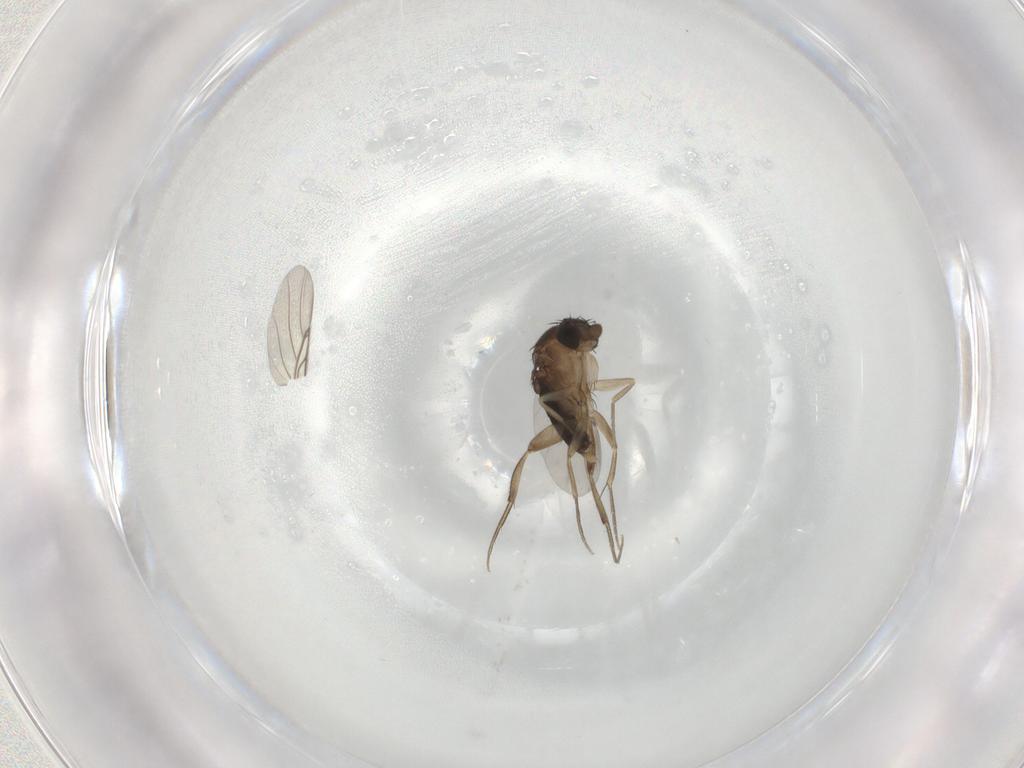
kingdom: Animalia
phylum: Arthropoda
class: Insecta
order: Diptera
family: Phoridae
